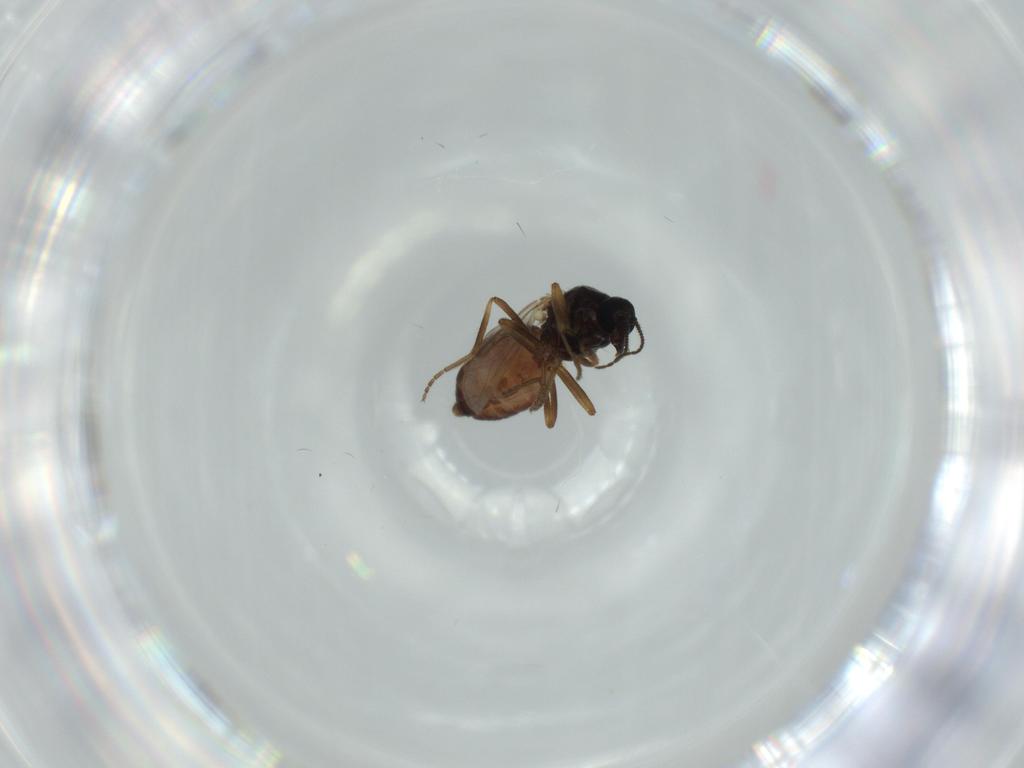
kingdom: Animalia
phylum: Arthropoda
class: Insecta
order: Diptera
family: Ceratopogonidae
